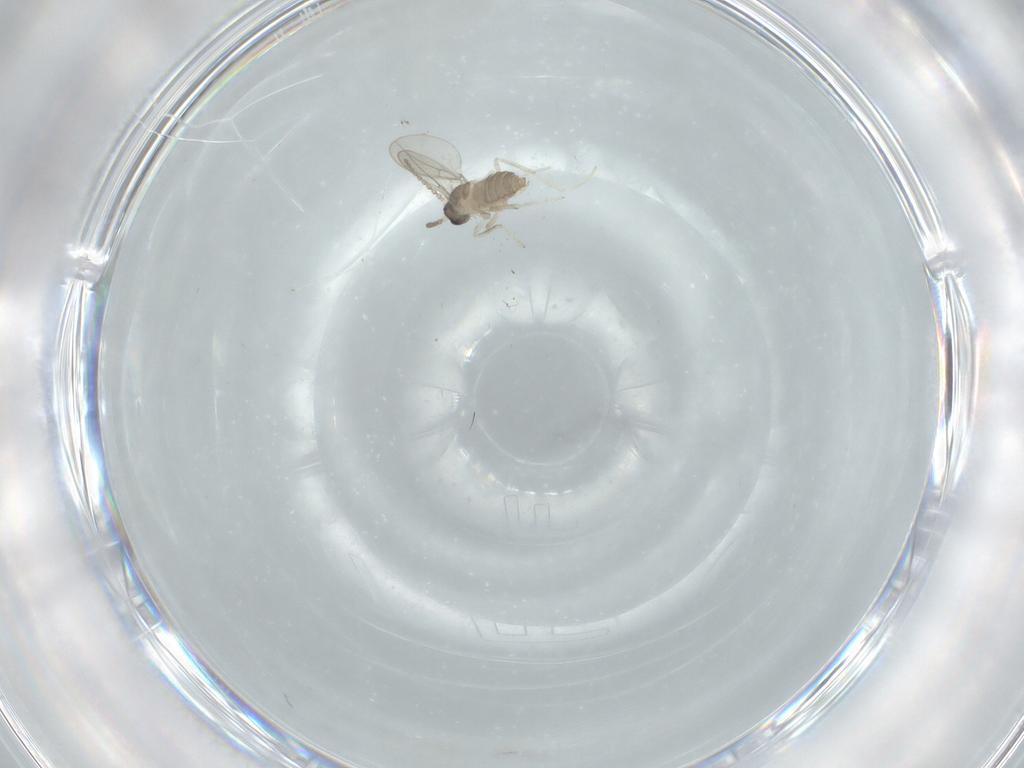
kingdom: Animalia
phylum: Arthropoda
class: Insecta
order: Diptera
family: Cecidomyiidae
